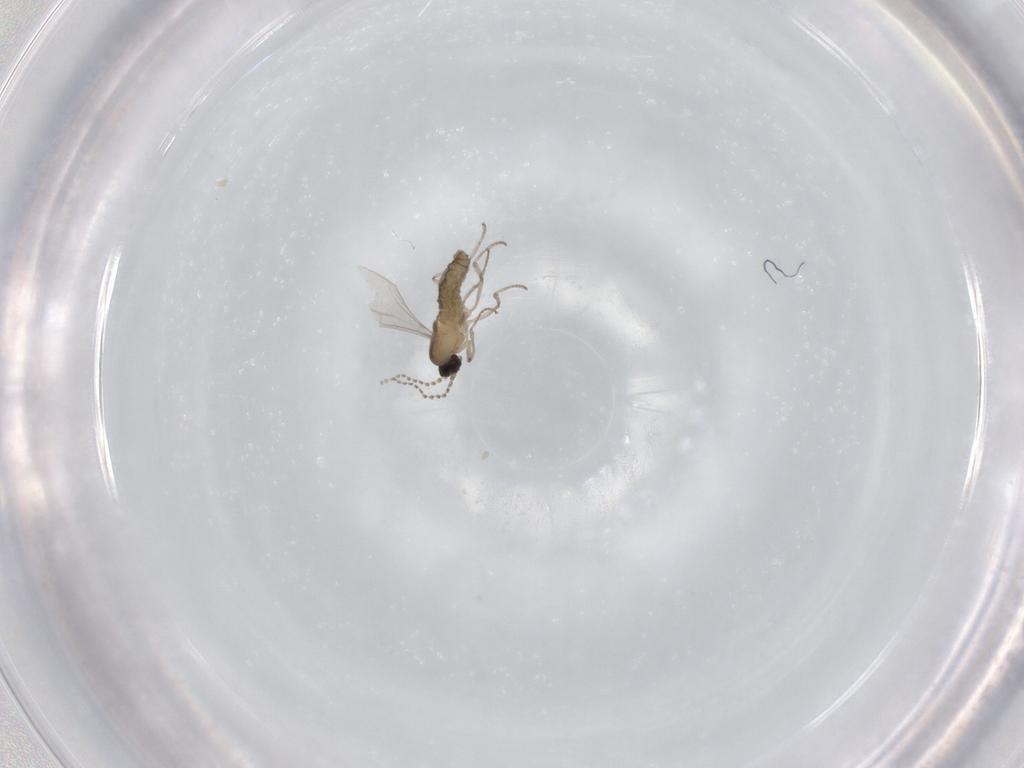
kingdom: Animalia
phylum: Arthropoda
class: Insecta
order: Diptera
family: Cecidomyiidae
